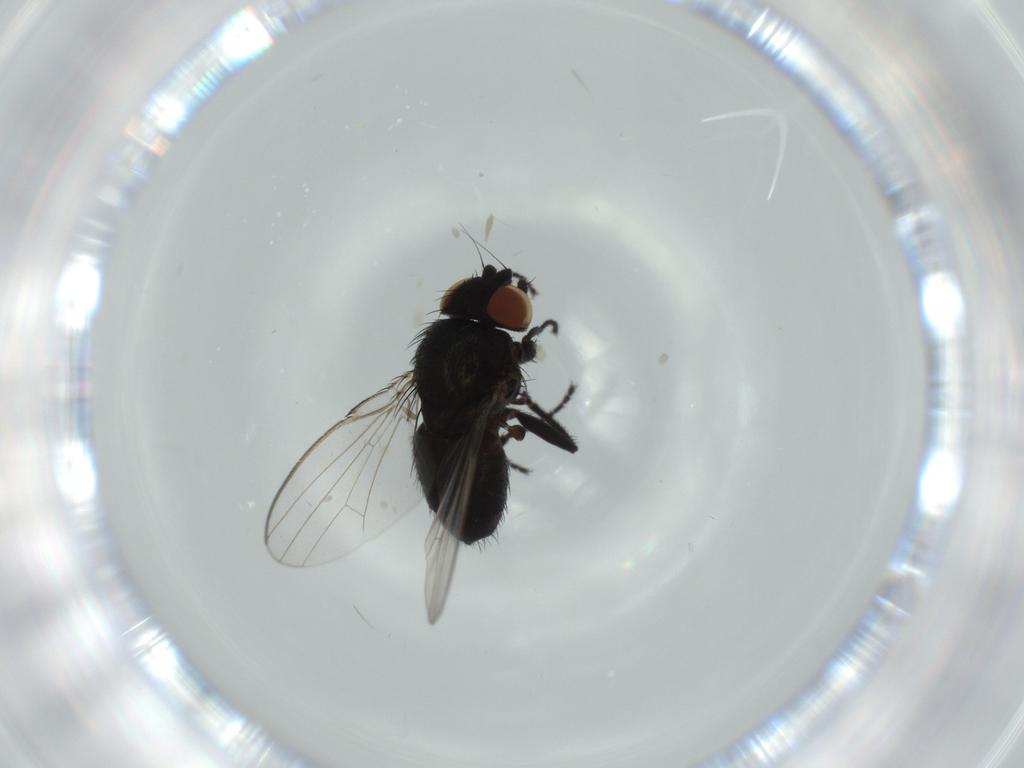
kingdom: Animalia
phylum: Arthropoda
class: Insecta
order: Diptera
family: Milichiidae
